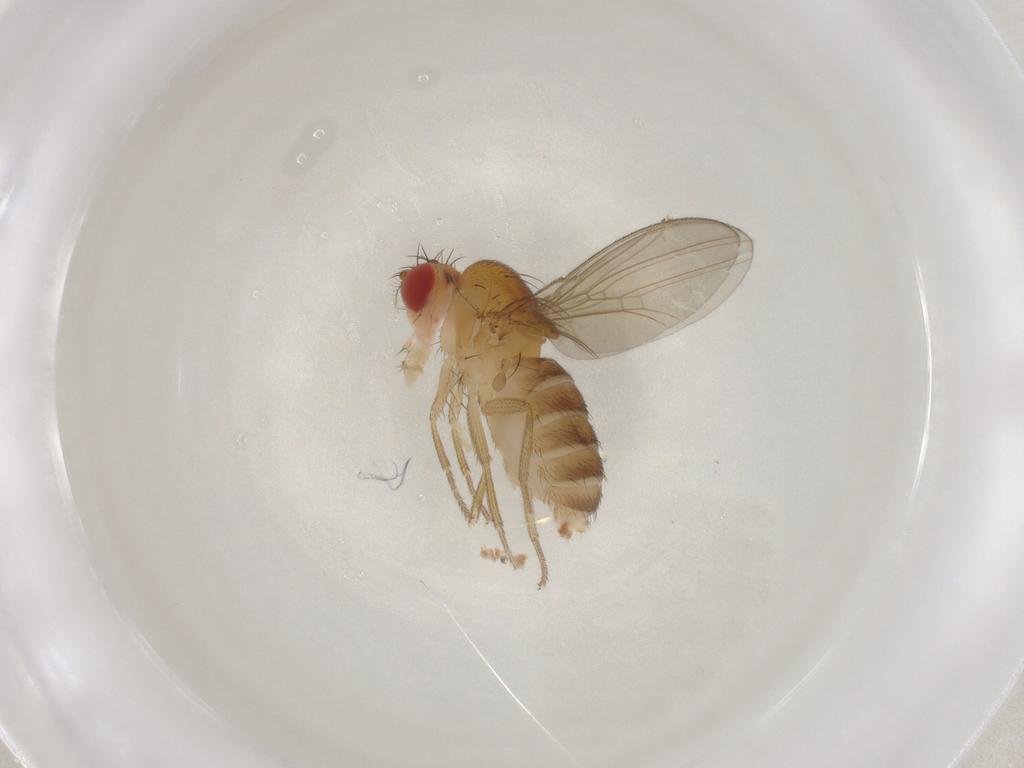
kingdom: Animalia
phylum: Arthropoda
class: Insecta
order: Diptera
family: Drosophilidae
